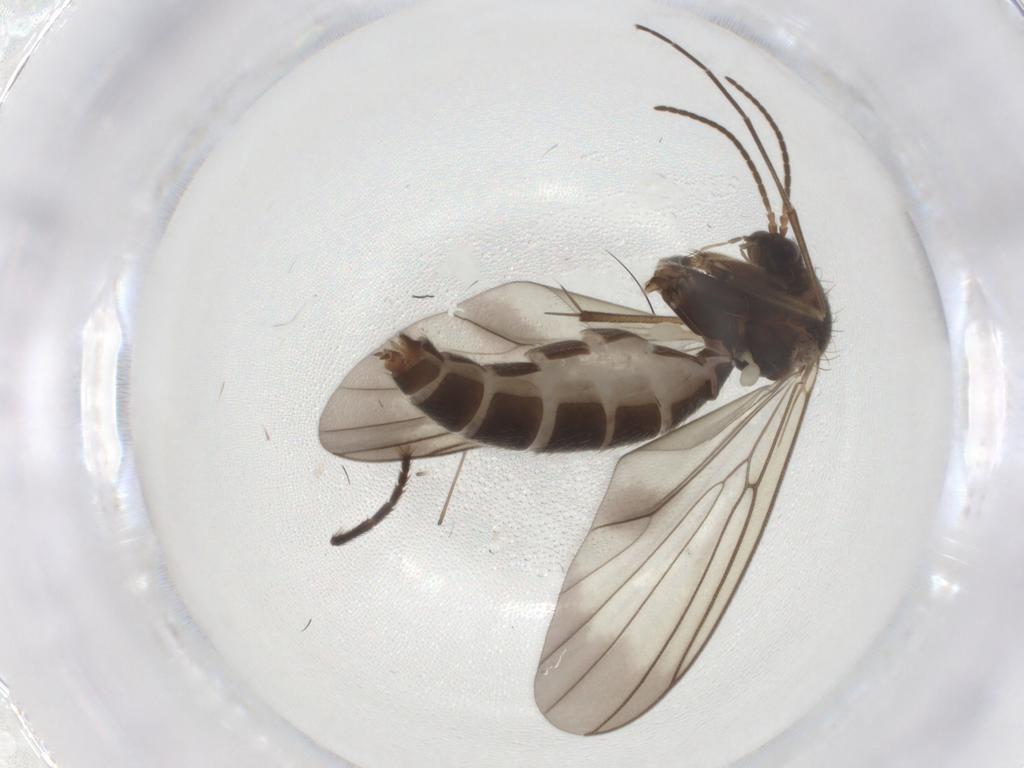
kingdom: Animalia
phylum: Arthropoda
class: Insecta
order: Diptera
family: Mycetophilidae
